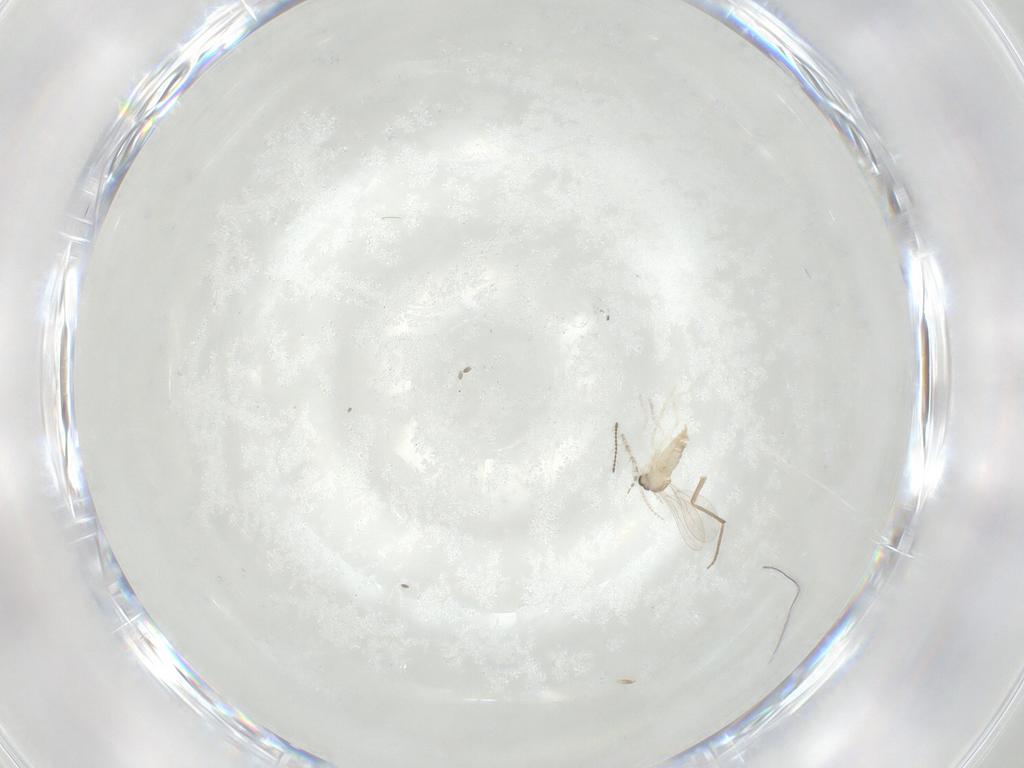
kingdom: Animalia
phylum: Arthropoda
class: Insecta
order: Diptera
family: Cecidomyiidae
